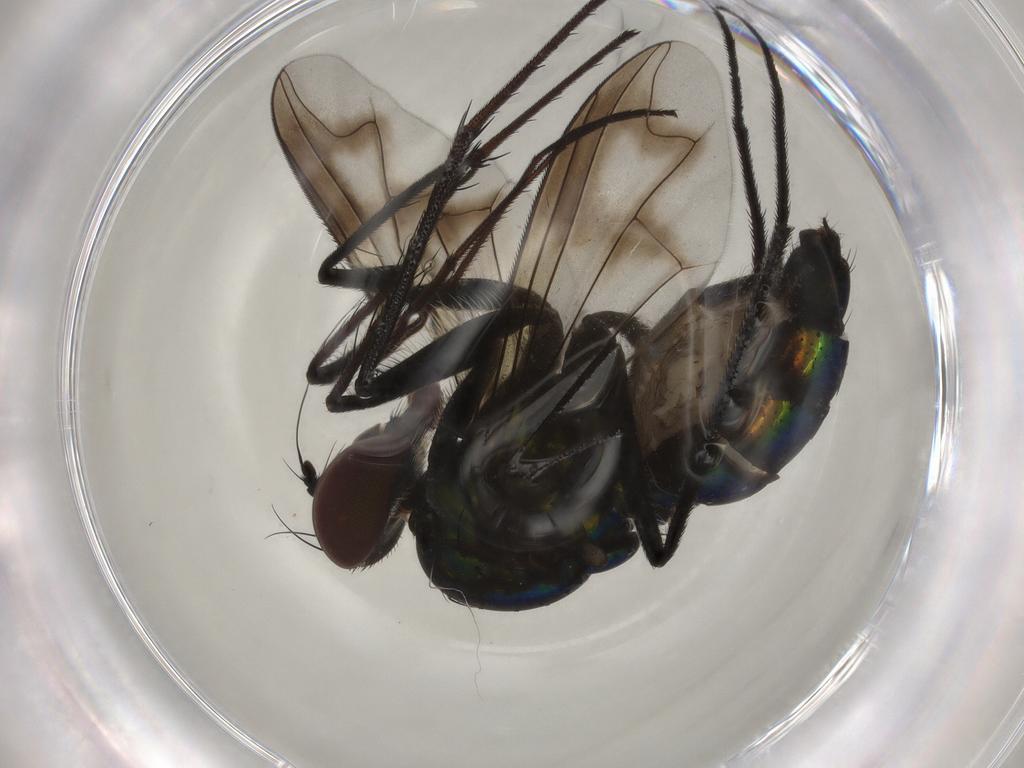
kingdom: Animalia
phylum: Arthropoda
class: Insecta
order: Diptera
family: Dolichopodidae
